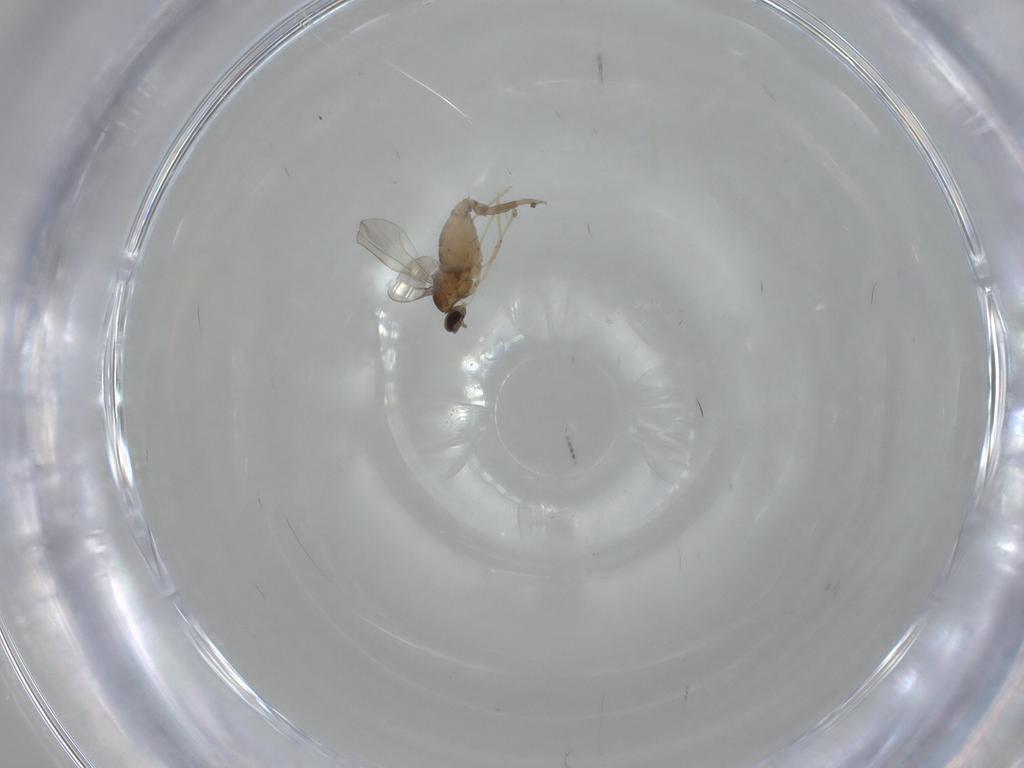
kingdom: Animalia
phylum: Arthropoda
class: Insecta
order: Diptera
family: Cecidomyiidae
